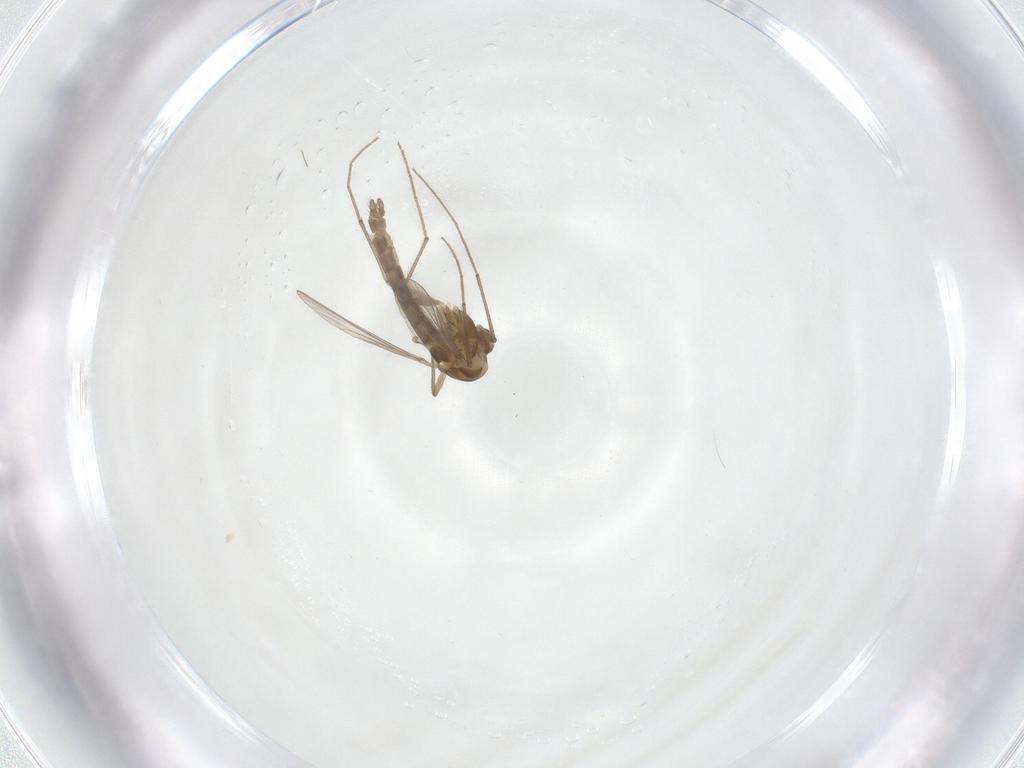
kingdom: Animalia
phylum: Arthropoda
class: Insecta
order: Diptera
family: Chironomidae
